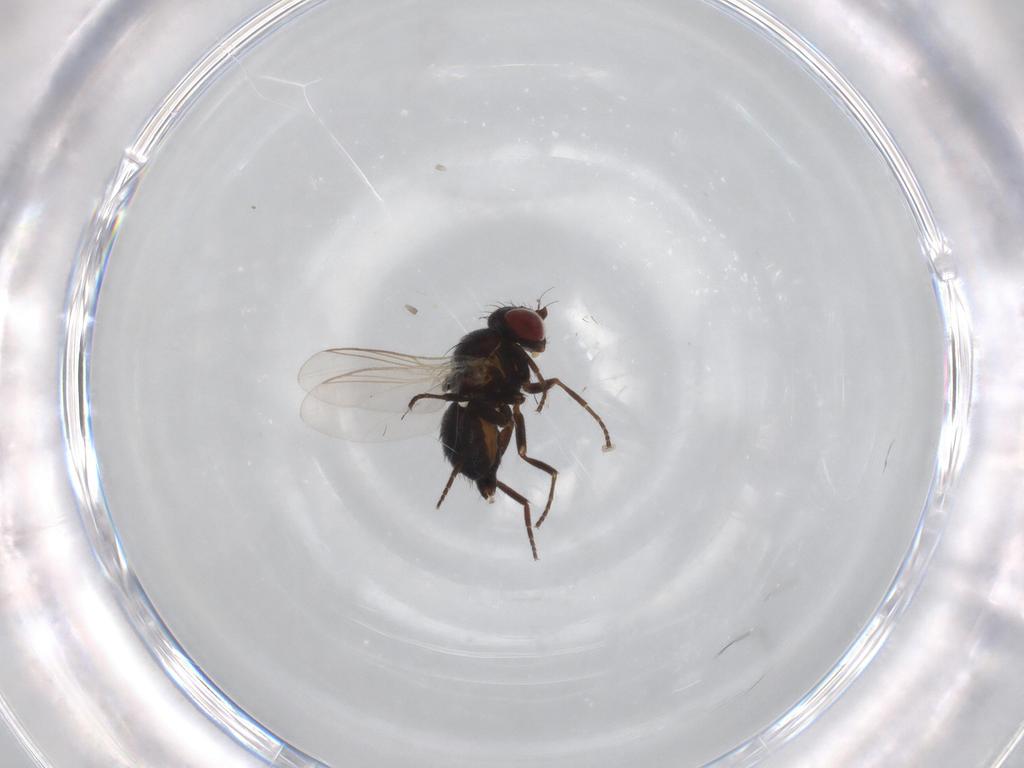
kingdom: Animalia
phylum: Arthropoda
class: Insecta
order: Diptera
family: Agromyzidae
